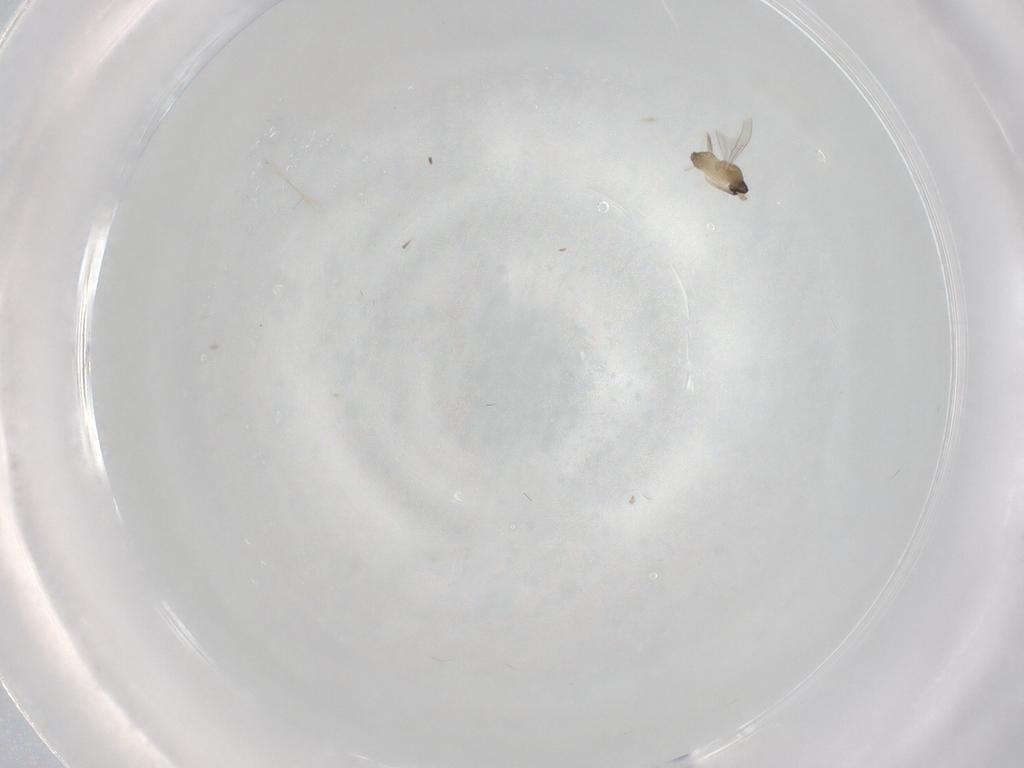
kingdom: Animalia
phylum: Arthropoda
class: Insecta
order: Diptera
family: Cecidomyiidae
